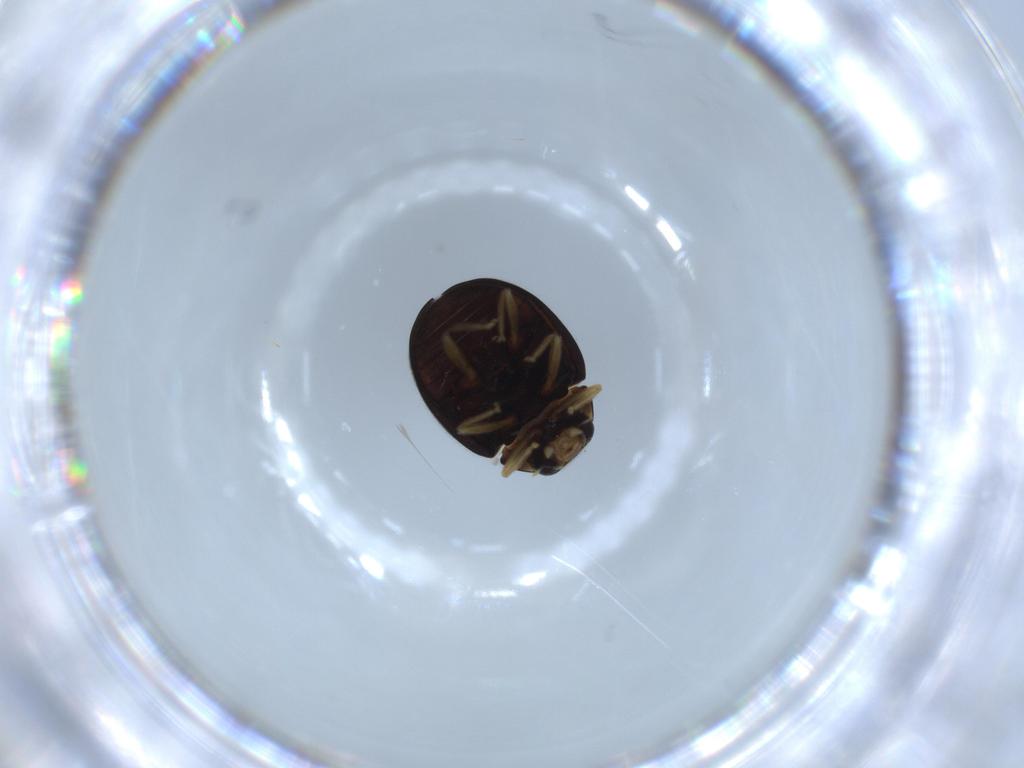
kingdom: Animalia
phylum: Arthropoda
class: Insecta
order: Coleoptera
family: Coccinellidae
